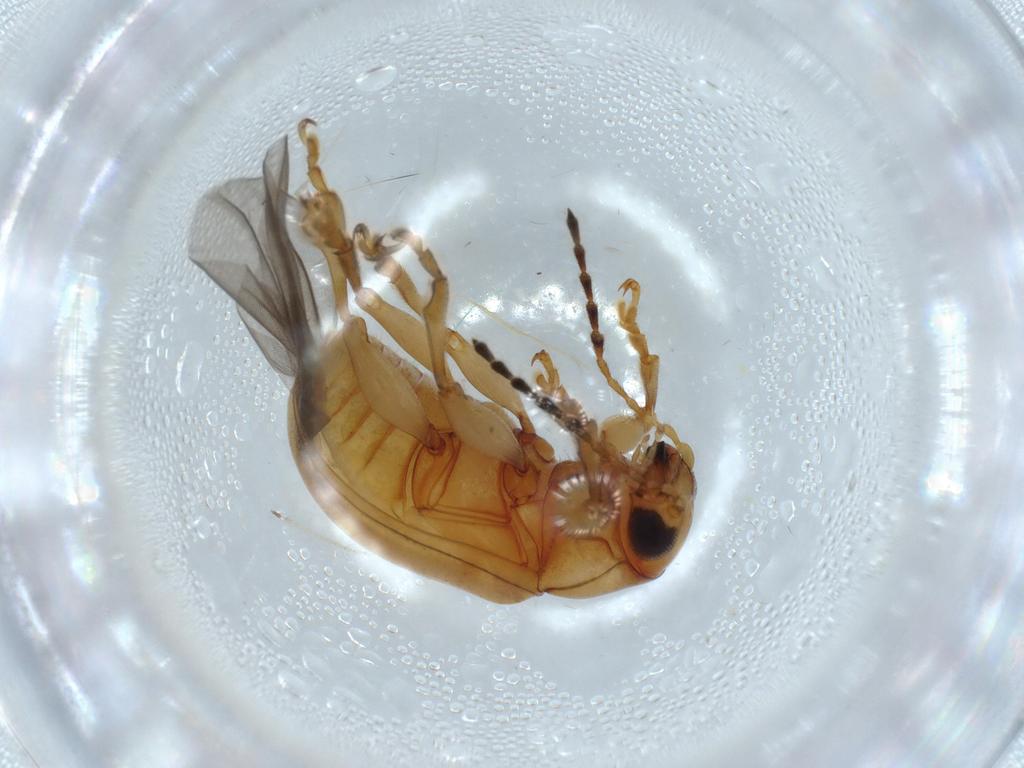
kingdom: Animalia
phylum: Arthropoda
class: Insecta
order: Coleoptera
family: Chrysomelidae
